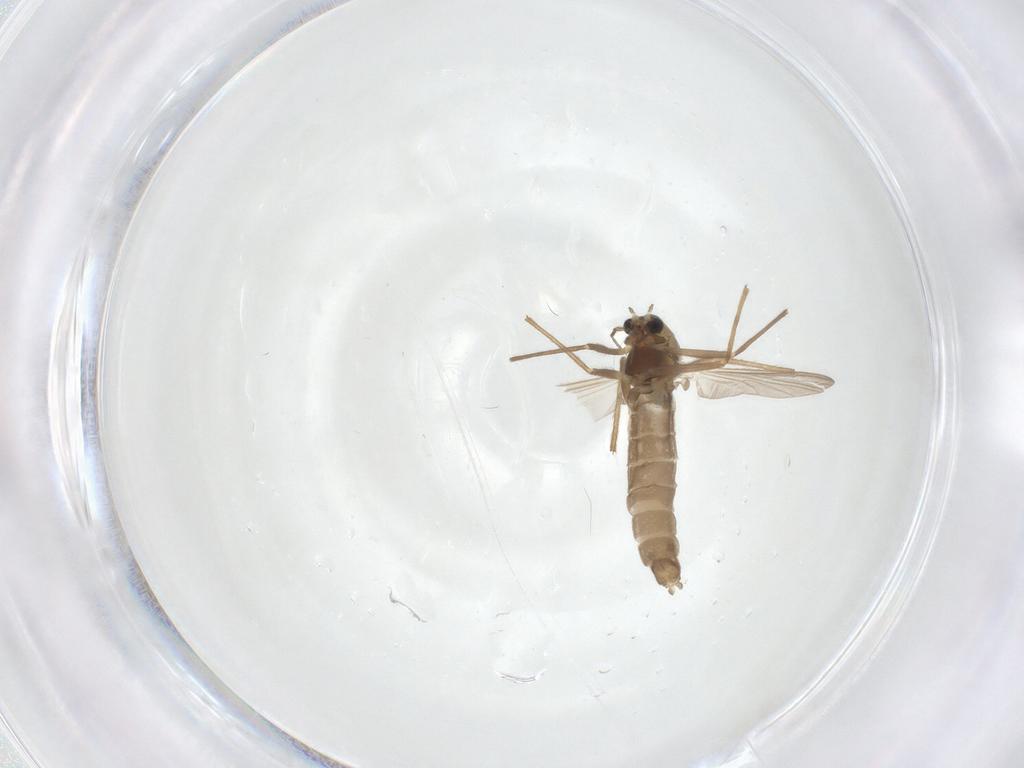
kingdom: Animalia
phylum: Arthropoda
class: Insecta
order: Diptera
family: Chironomidae
